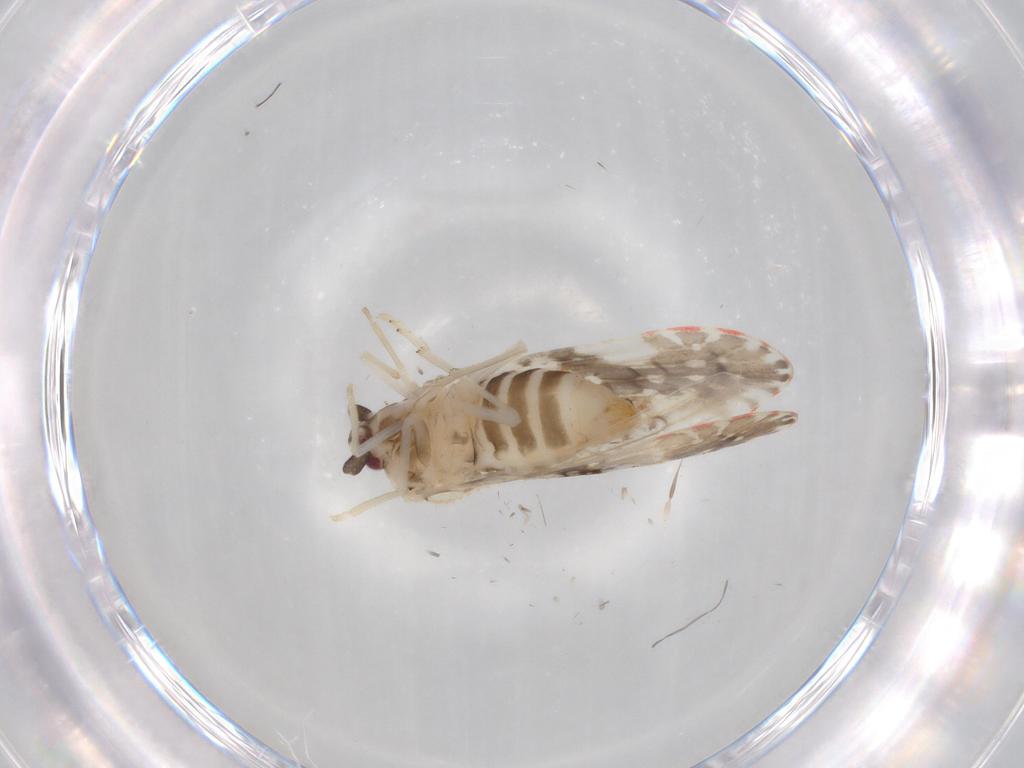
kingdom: Animalia
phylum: Arthropoda
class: Insecta
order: Hemiptera
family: Derbidae
